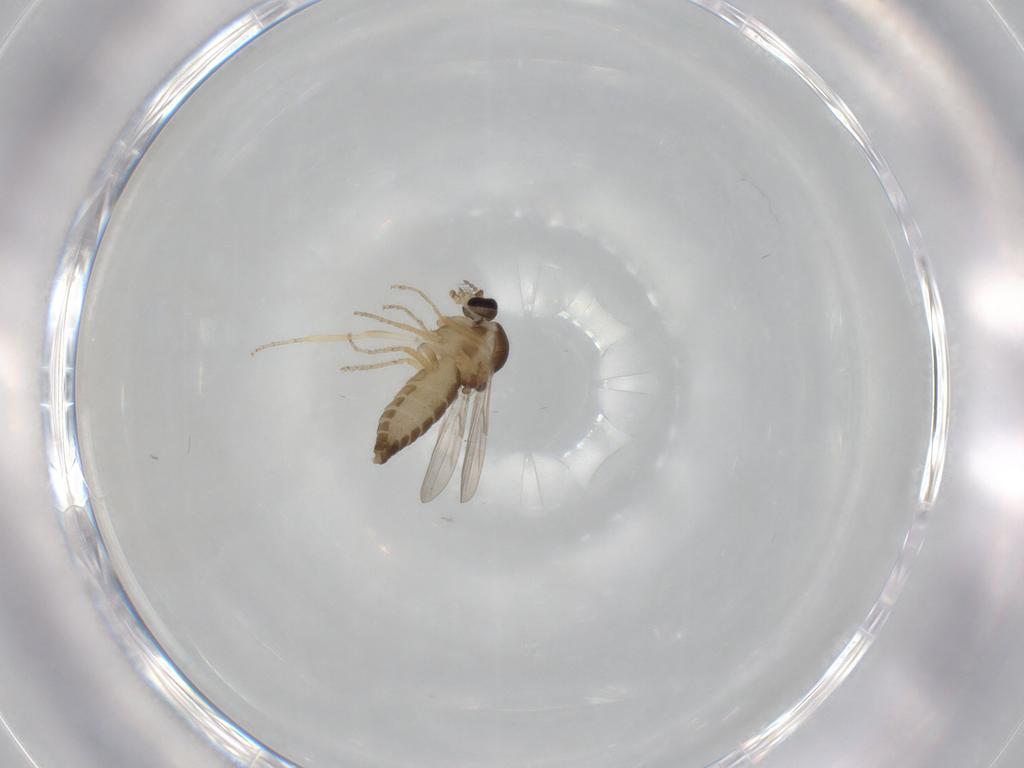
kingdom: Animalia
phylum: Arthropoda
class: Insecta
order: Diptera
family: Ceratopogonidae
